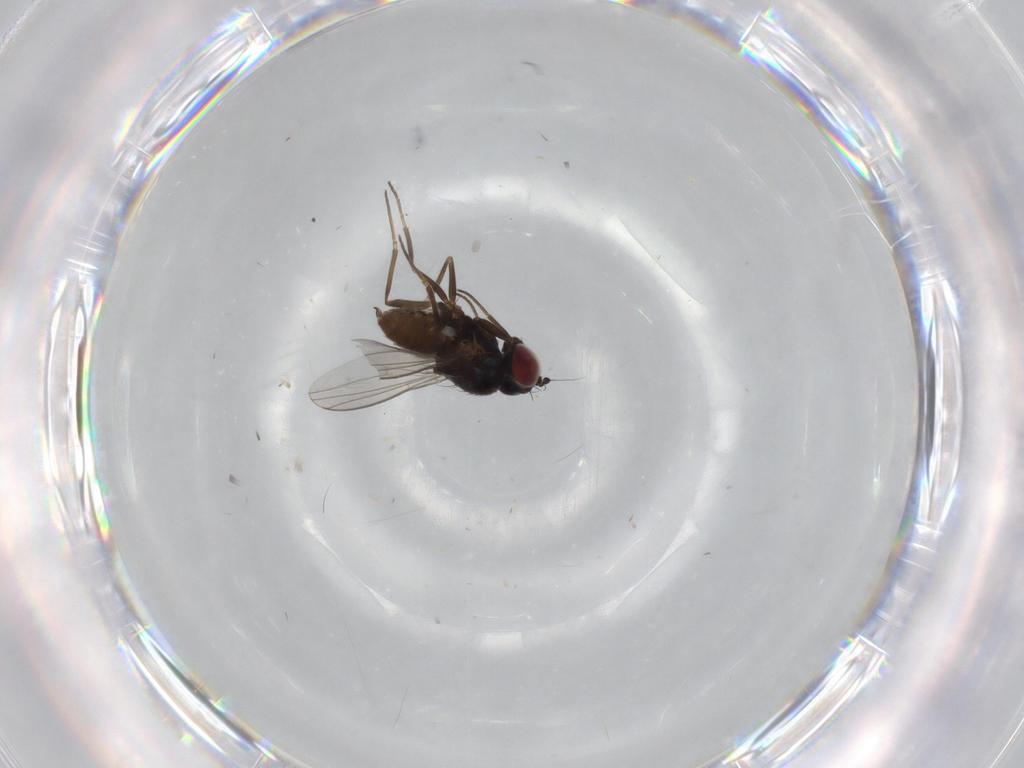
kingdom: Animalia
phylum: Arthropoda
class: Insecta
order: Diptera
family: Dolichopodidae
